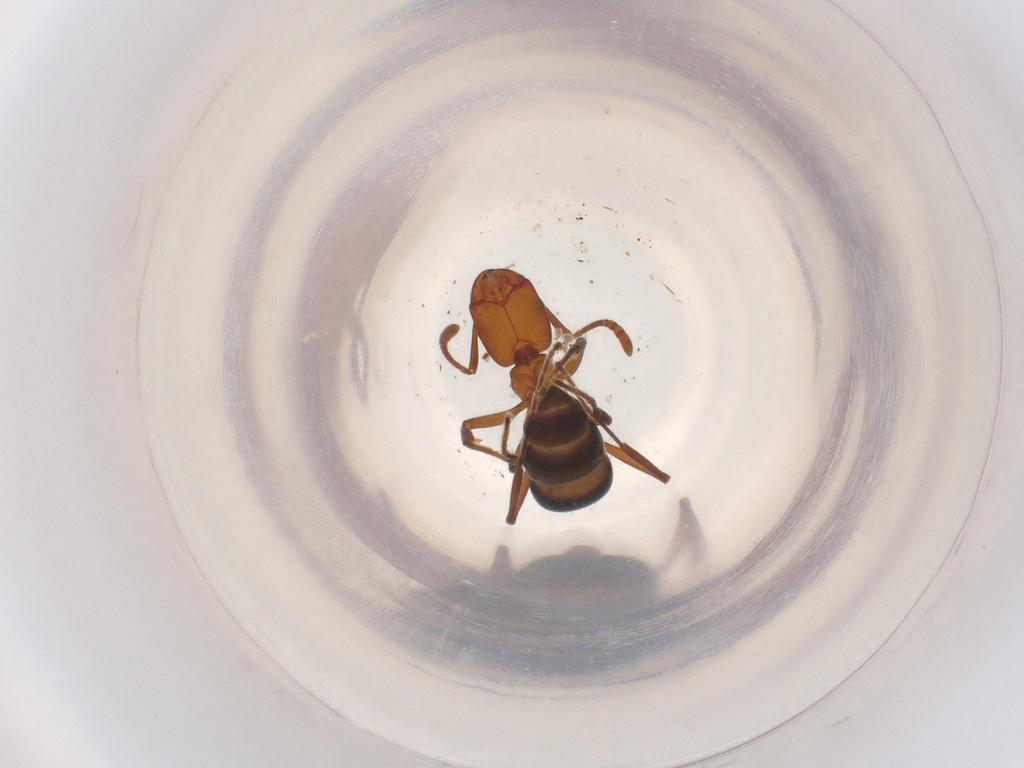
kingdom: Animalia
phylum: Arthropoda
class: Insecta
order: Hymenoptera
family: Formicidae
